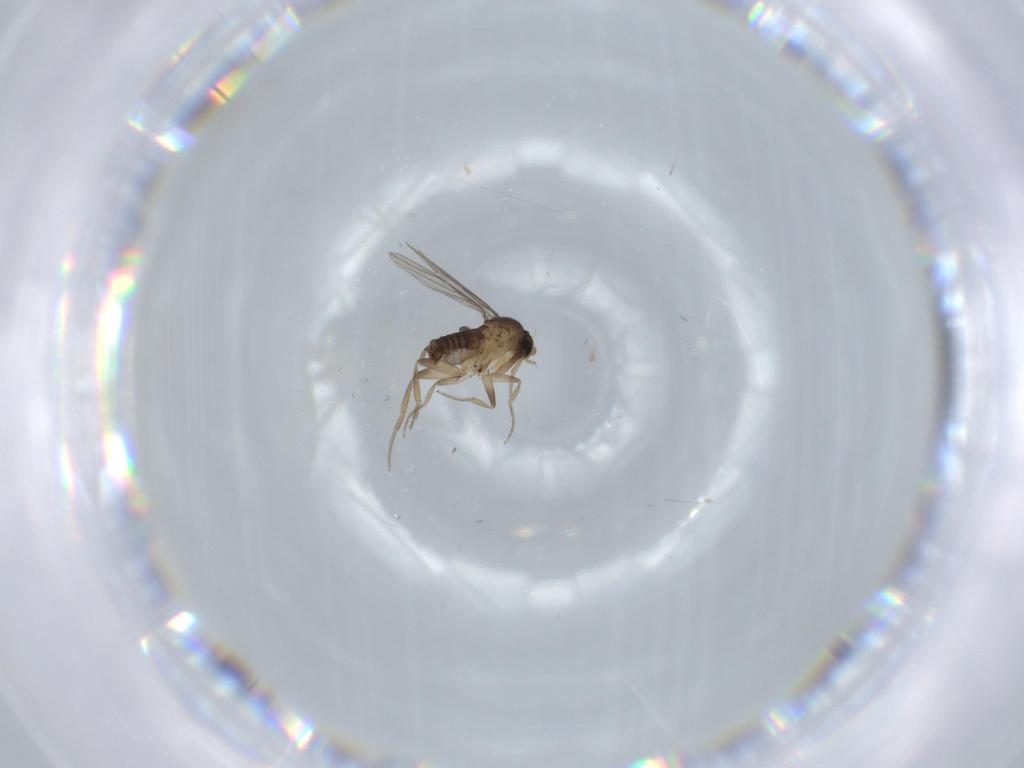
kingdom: Animalia
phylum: Arthropoda
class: Insecta
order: Diptera
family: Phoridae
